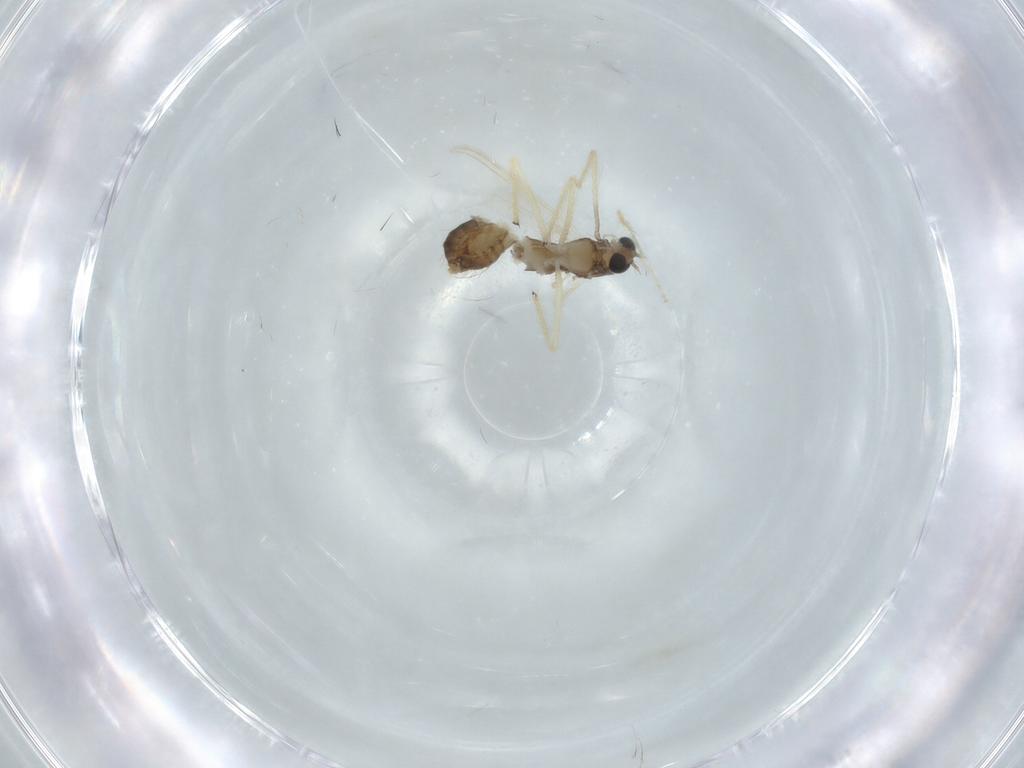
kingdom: Animalia
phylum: Arthropoda
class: Insecta
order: Diptera
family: Chironomidae
